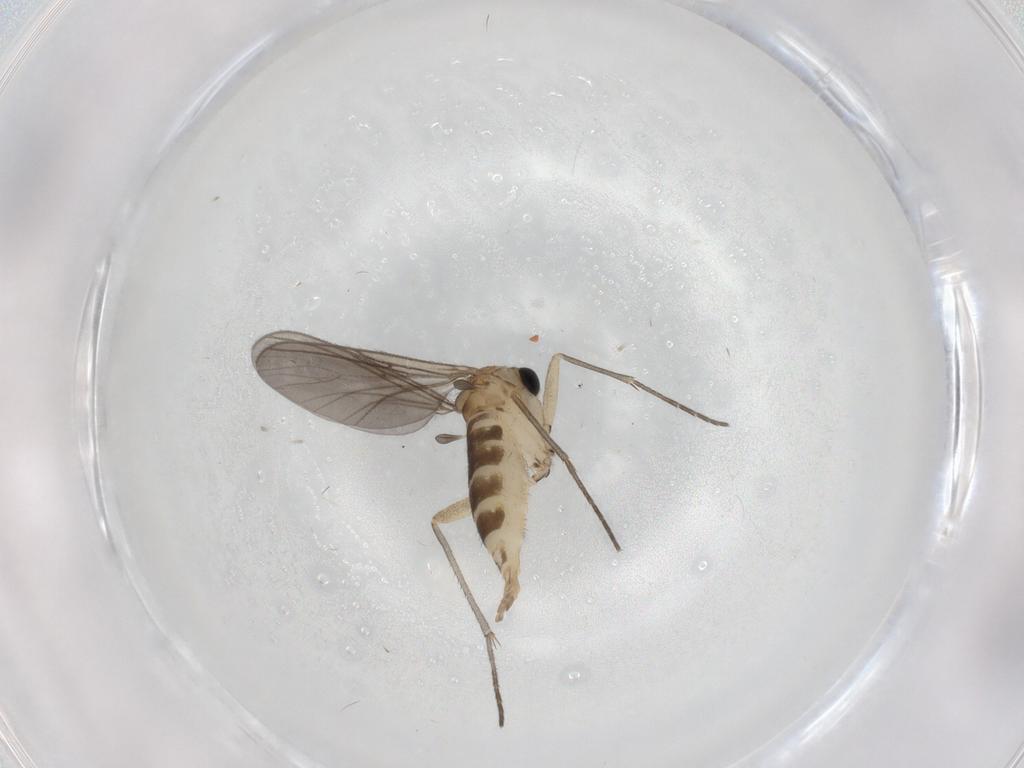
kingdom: Animalia
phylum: Arthropoda
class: Insecta
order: Diptera
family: Sciaridae
